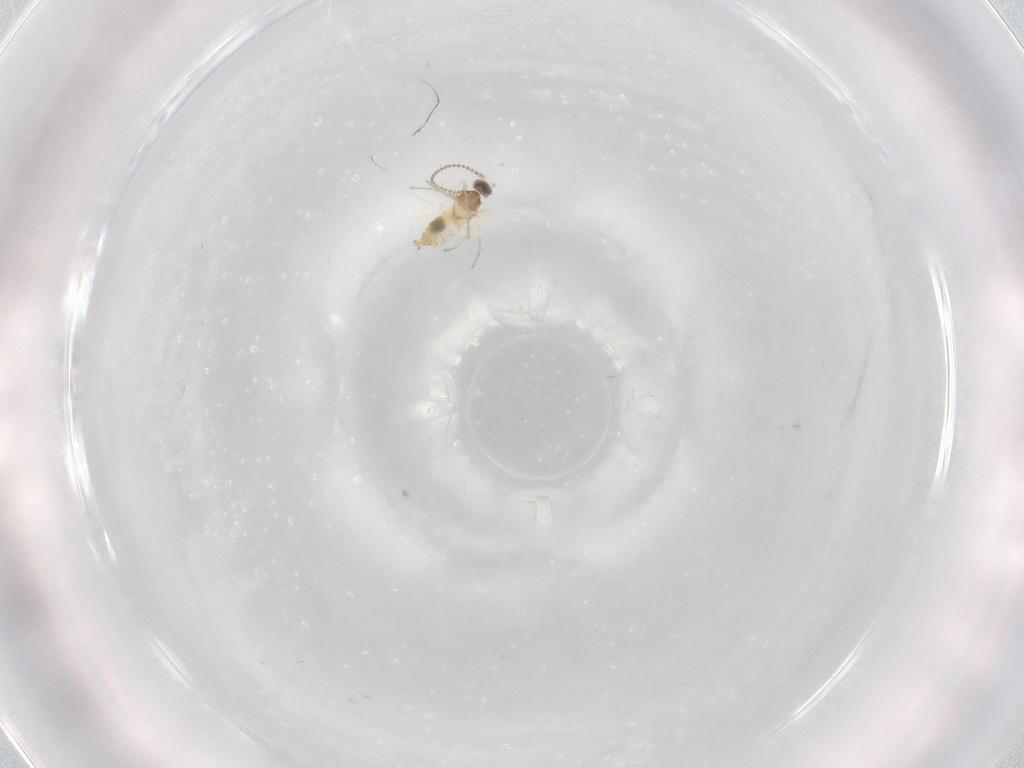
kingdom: Animalia
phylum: Arthropoda
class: Insecta
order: Diptera
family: Cecidomyiidae
